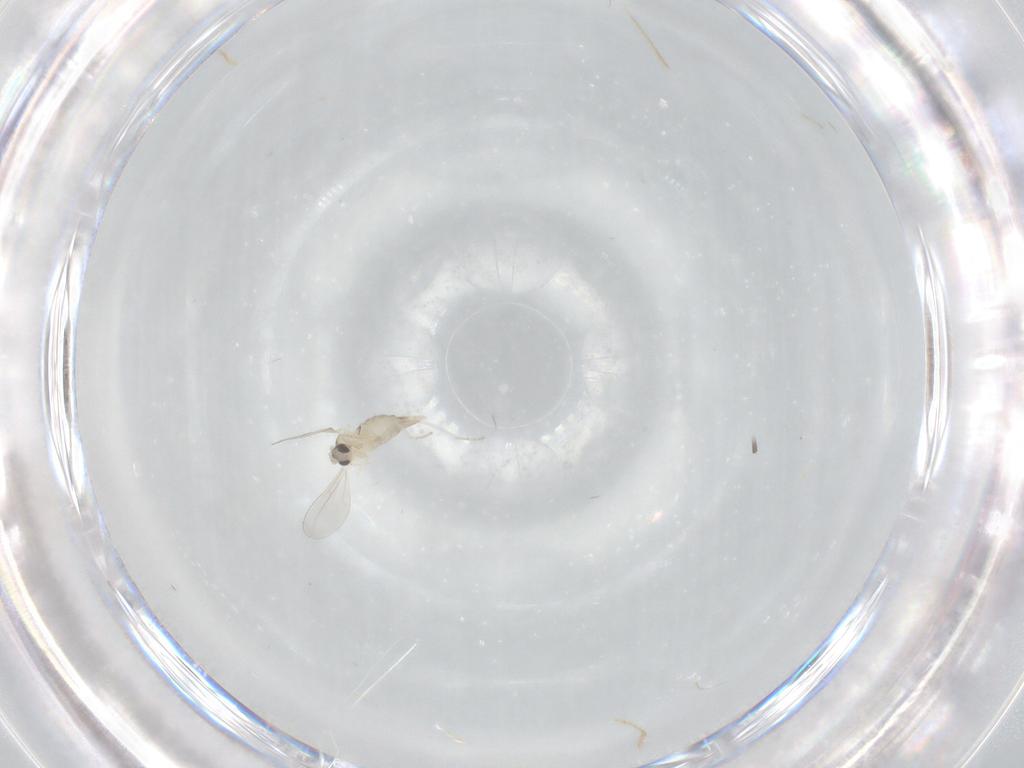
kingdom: Animalia
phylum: Arthropoda
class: Insecta
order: Diptera
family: Cecidomyiidae
